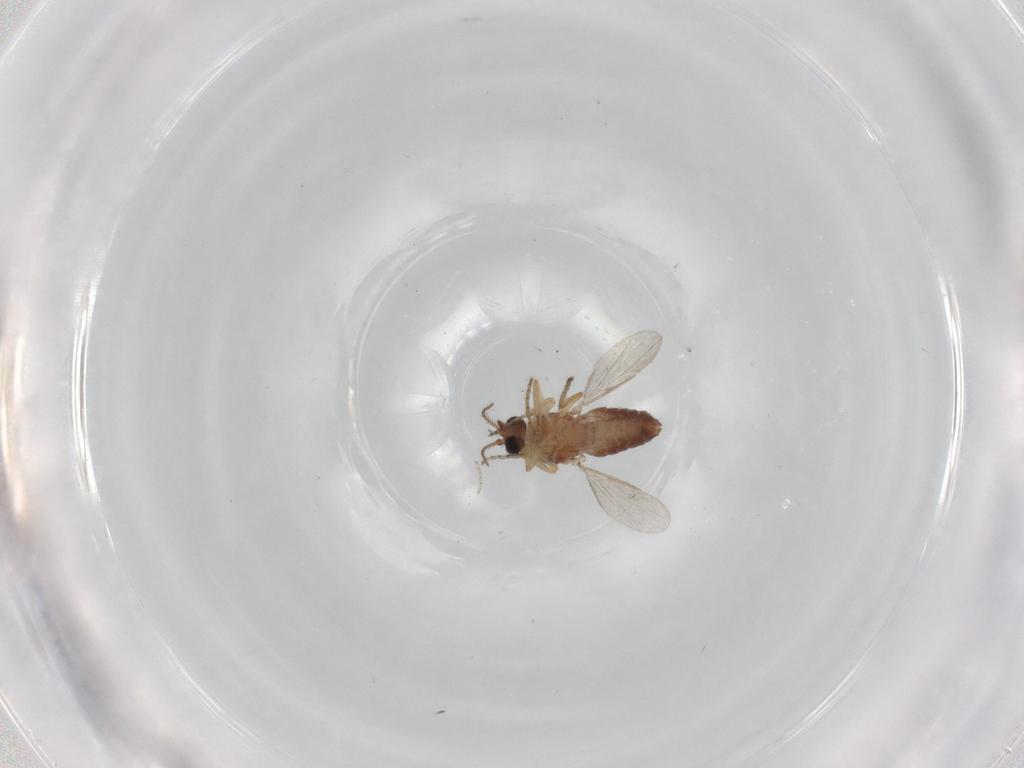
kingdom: Animalia
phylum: Arthropoda
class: Insecta
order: Diptera
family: Ceratopogonidae
